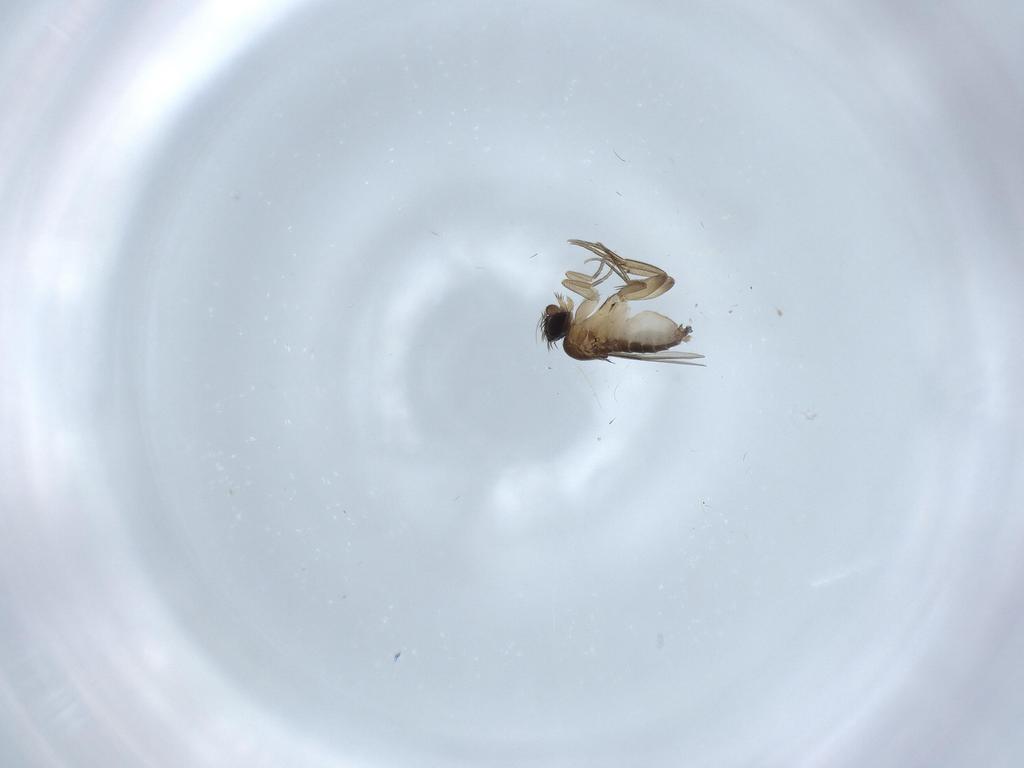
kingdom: Animalia
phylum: Arthropoda
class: Insecta
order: Diptera
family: Phoridae
